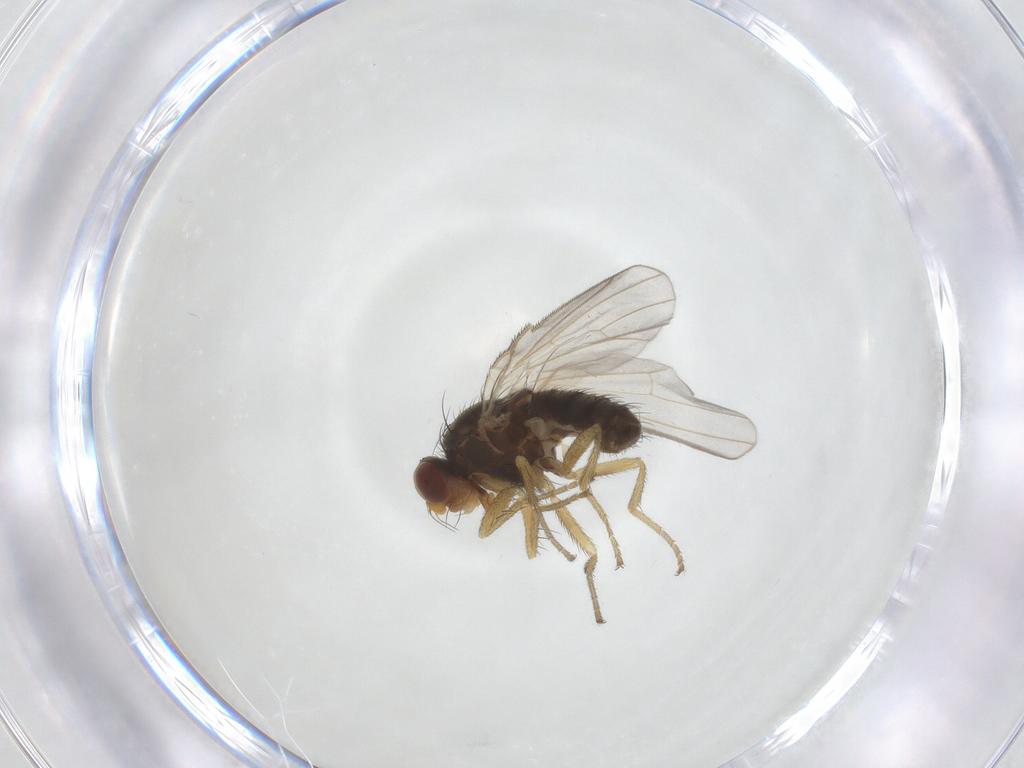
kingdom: Animalia
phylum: Arthropoda
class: Insecta
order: Diptera
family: Heleomyzidae
